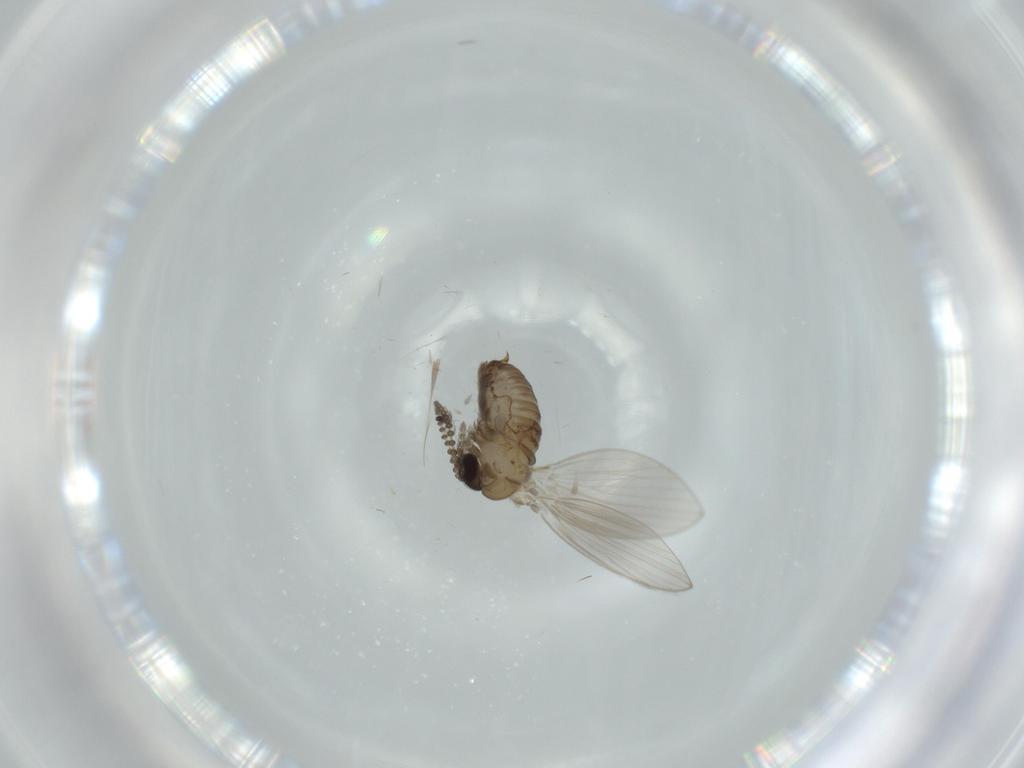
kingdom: Animalia
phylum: Arthropoda
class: Insecta
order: Diptera
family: Limoniidae
